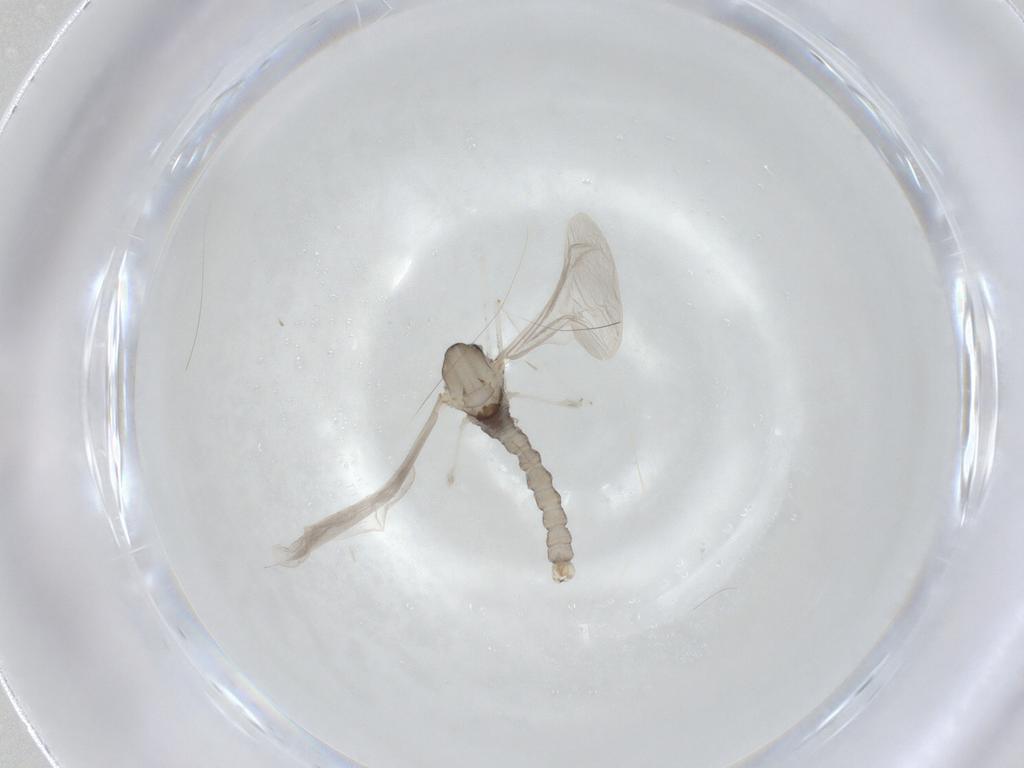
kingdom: Animalia
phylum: Arthropoda
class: Insecta
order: Diptera
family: Cecidomyiidae
